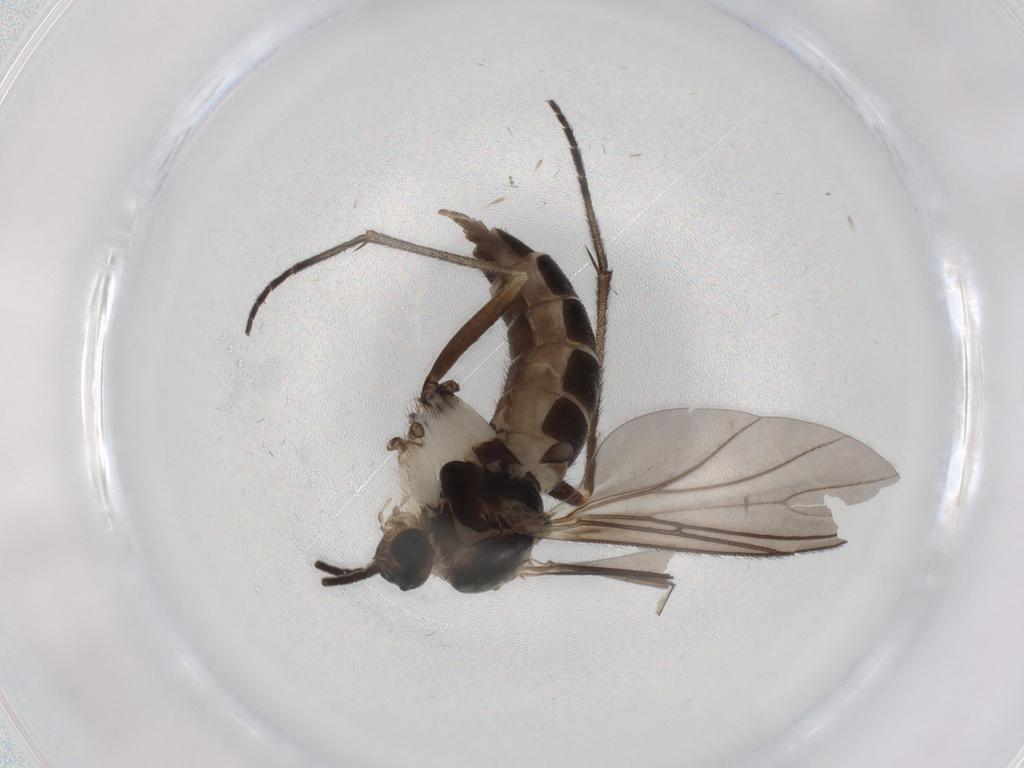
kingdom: Animalia
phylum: Arthropoda
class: Insecta
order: Diptera
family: Sciaridae
